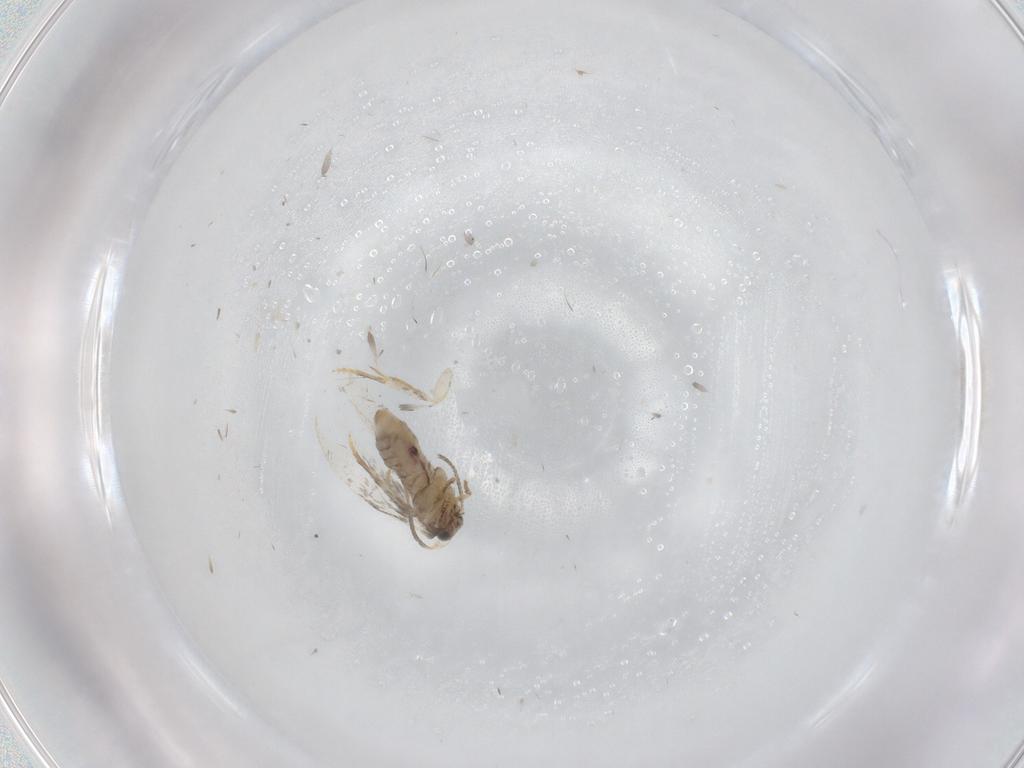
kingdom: Animalia
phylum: Arthropoda
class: Insecta
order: Lepidoptera
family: Nepticulidae
